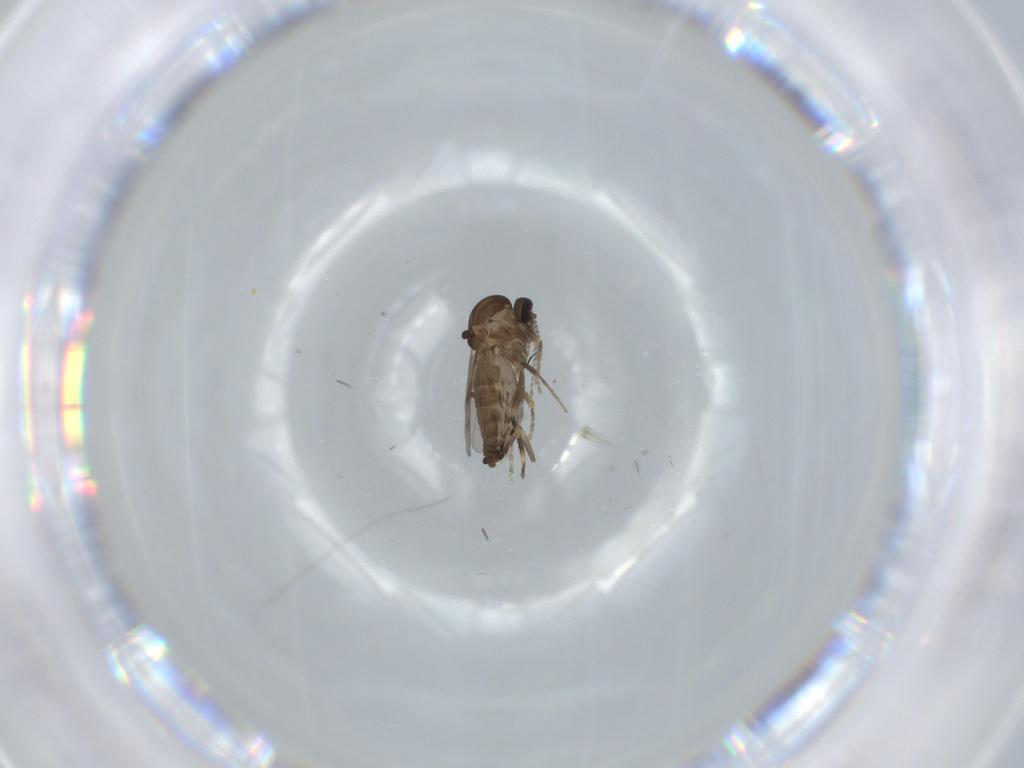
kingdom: Animalia
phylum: Arthropoda
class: Insecta
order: Diptera
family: Ceratopogonidae
